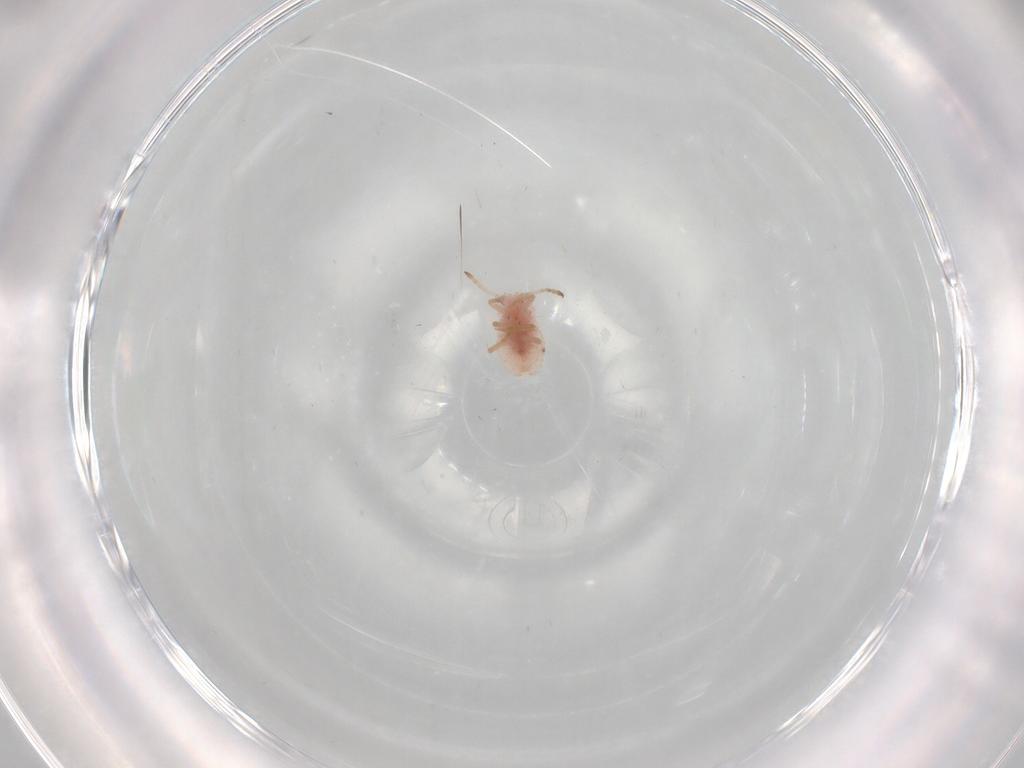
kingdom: Animalia
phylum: Arthropoda
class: Insecta
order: Hemiptera
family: Coccoidea_incertae_sedis
